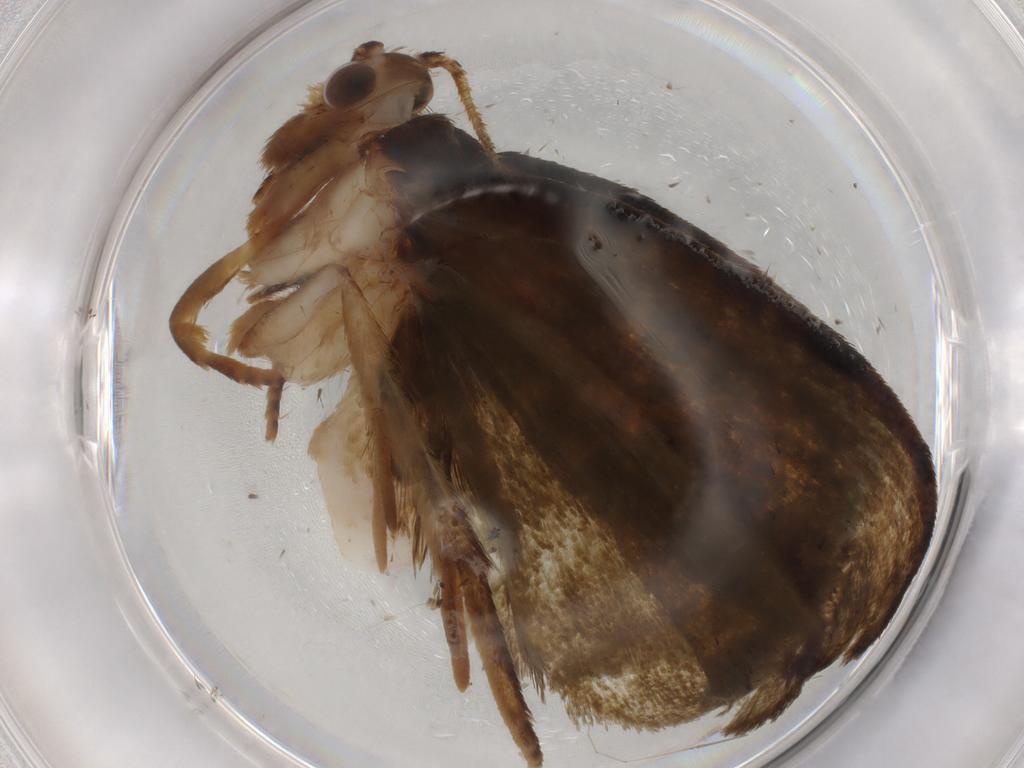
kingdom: Animalia
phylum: Arthropoda
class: Insecta
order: Lepidoptera
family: Geometridae
